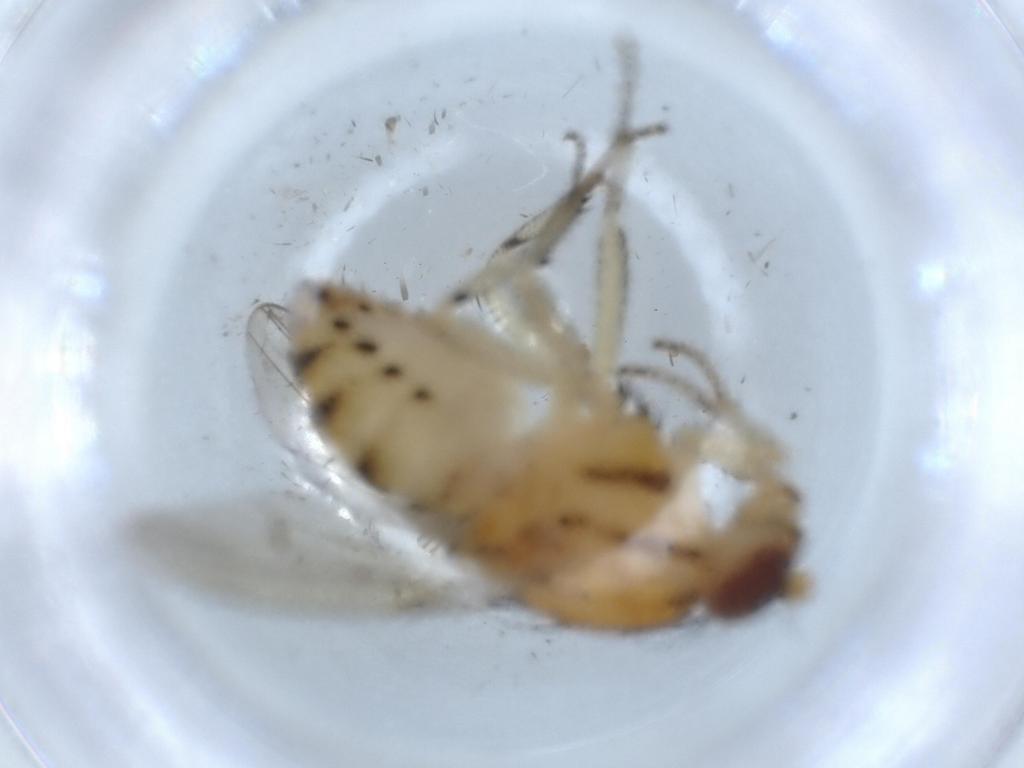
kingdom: Animalia
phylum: Arthropoda
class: Insecta
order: Diptera
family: Lauxaniidae
